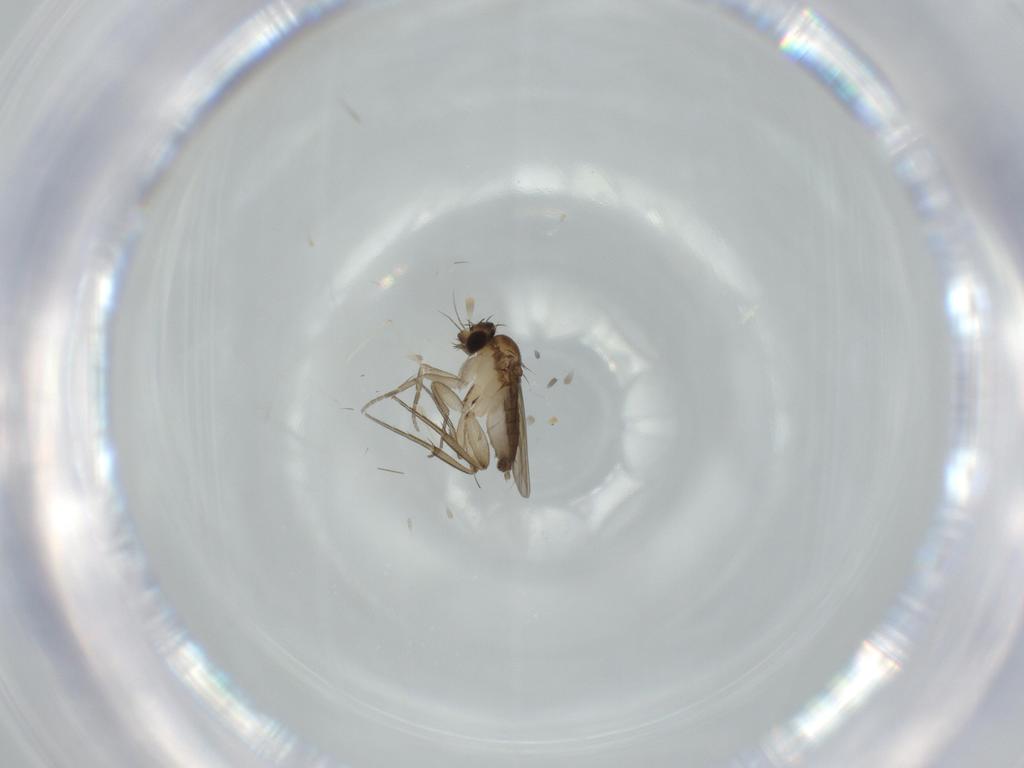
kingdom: Animalia
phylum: Arthropoda
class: Insecta
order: Diptera
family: Cecidomyiidae
